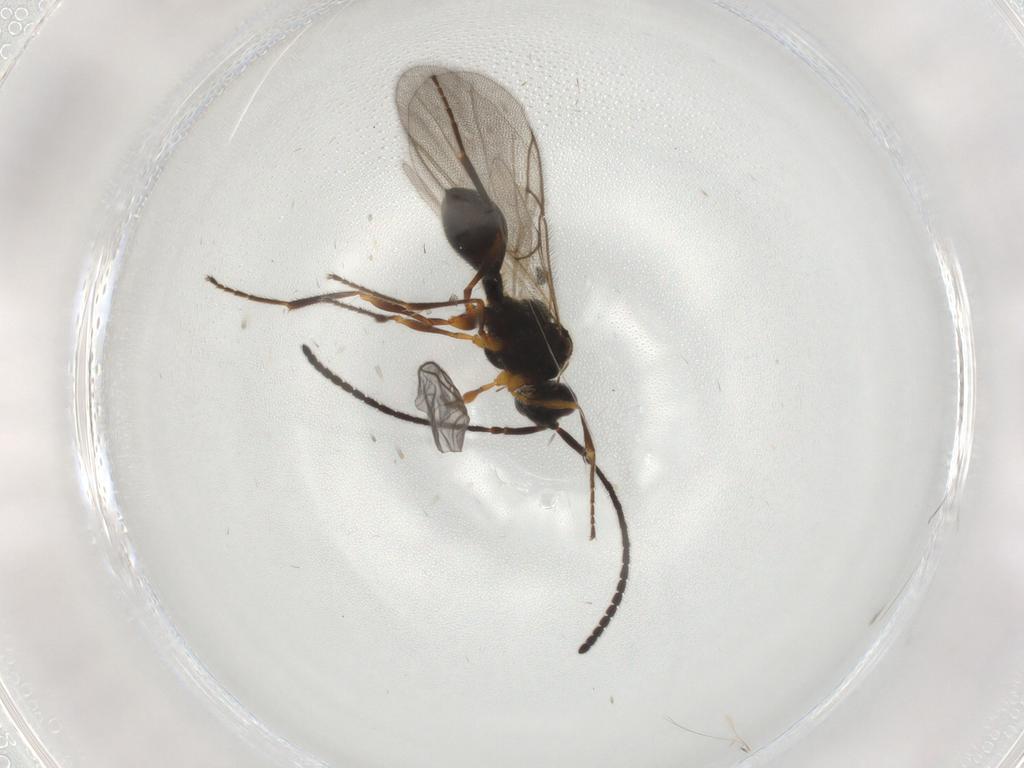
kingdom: Animalia
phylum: Arthropoda
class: Insecta
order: Hymenoptera
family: Diapriidae
